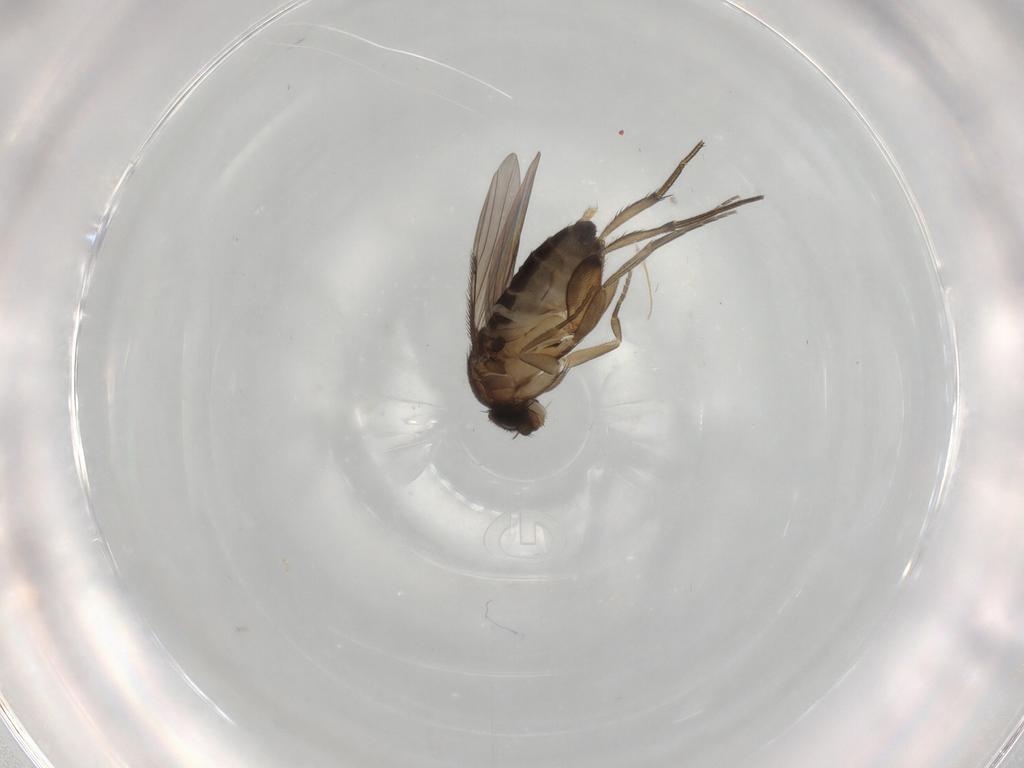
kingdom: Animalia
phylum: Arthropoda
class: Insecta
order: Diptera
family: Phoridae
